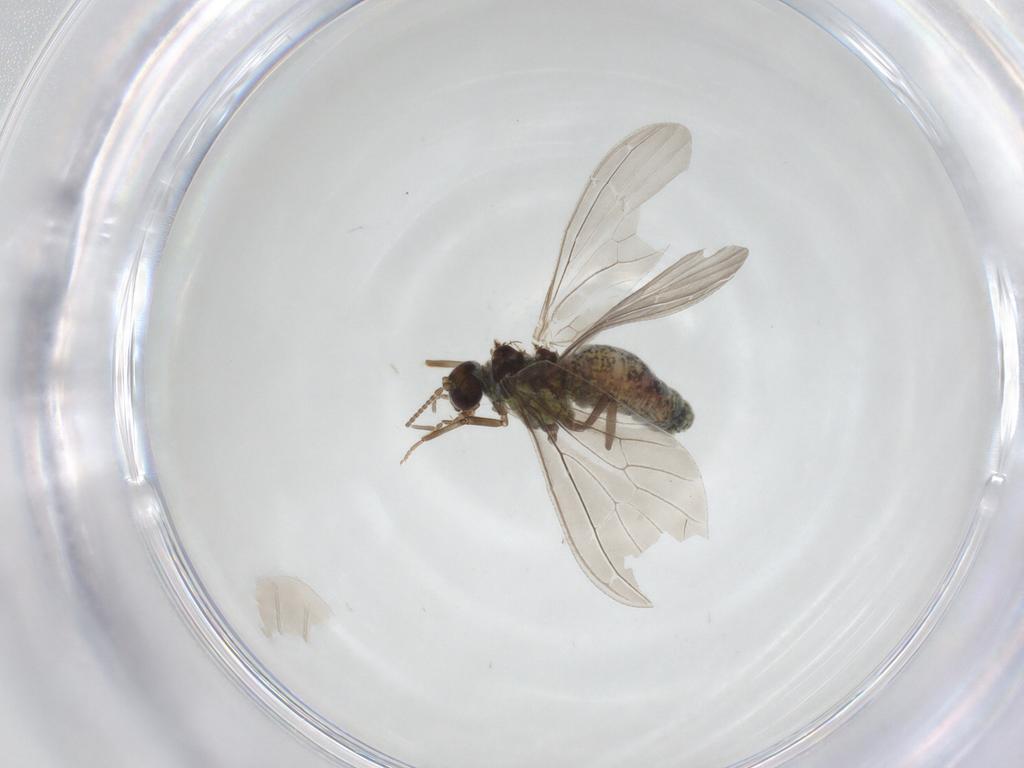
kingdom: Animalia
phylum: Arthropoda
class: Insecta
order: Neuroptera
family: Coniopterygidae
